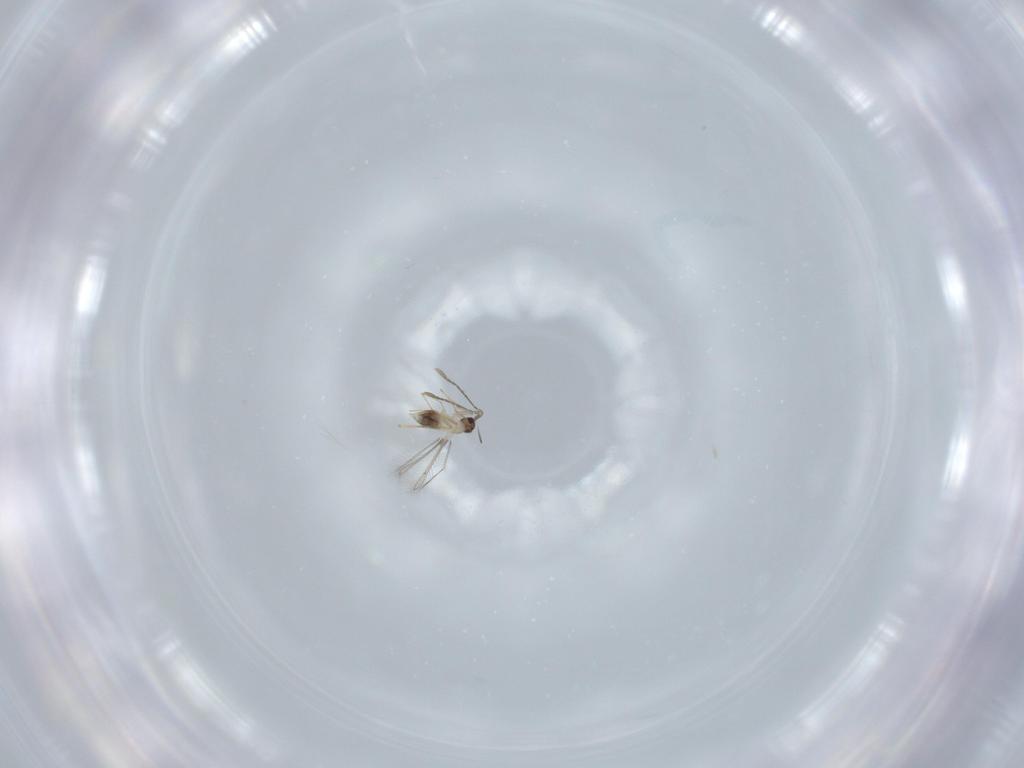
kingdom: Animalia
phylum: Arthropoda
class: Insecta
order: Hymenoptera
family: Mymaridae
